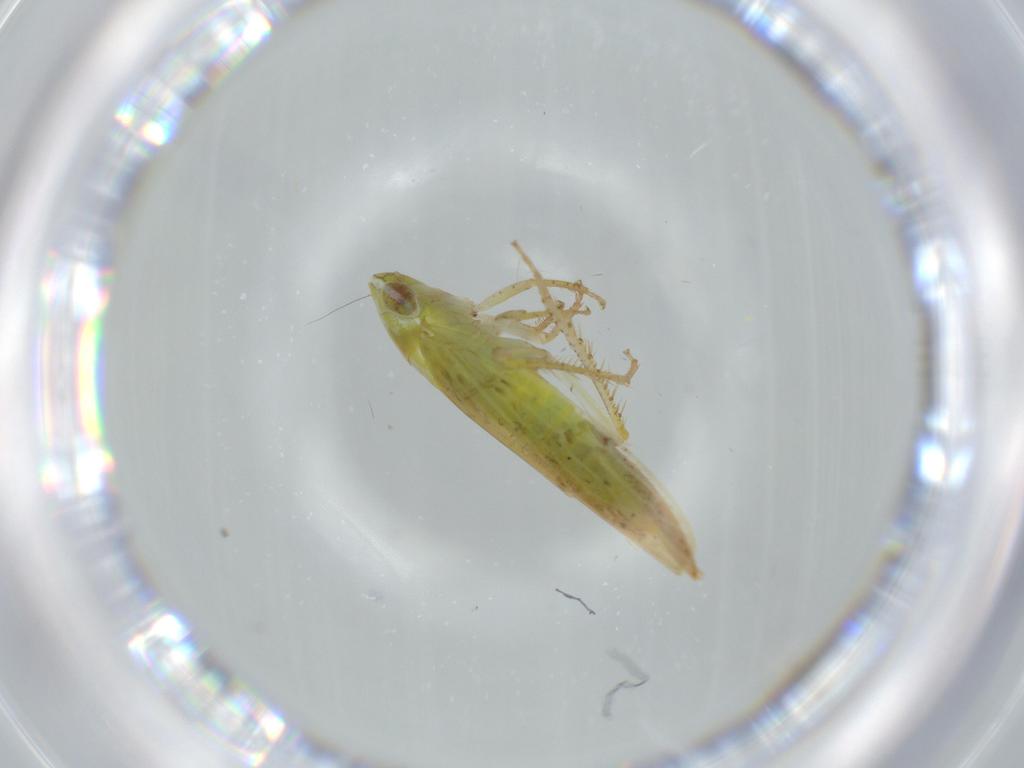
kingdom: Animalia
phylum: Arthropoda
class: Insecta
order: Hemiptera
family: Cicadellidae
